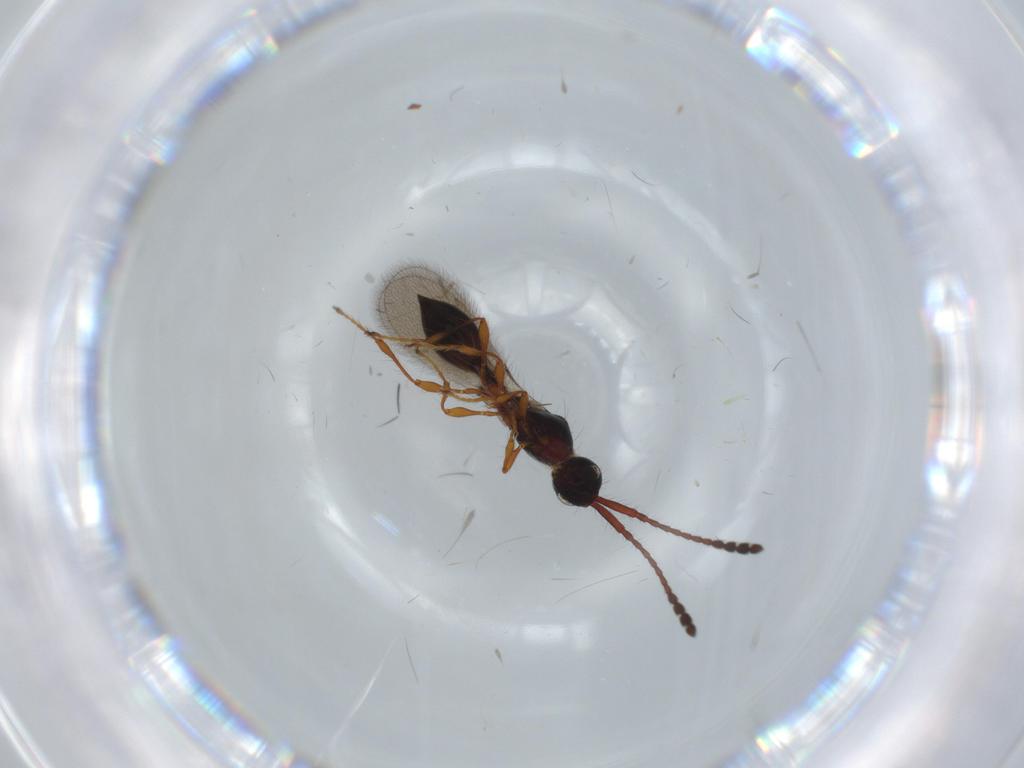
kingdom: Animalia
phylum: Arthropoda
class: Insecta
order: Hymenoptera
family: Diapriidae
